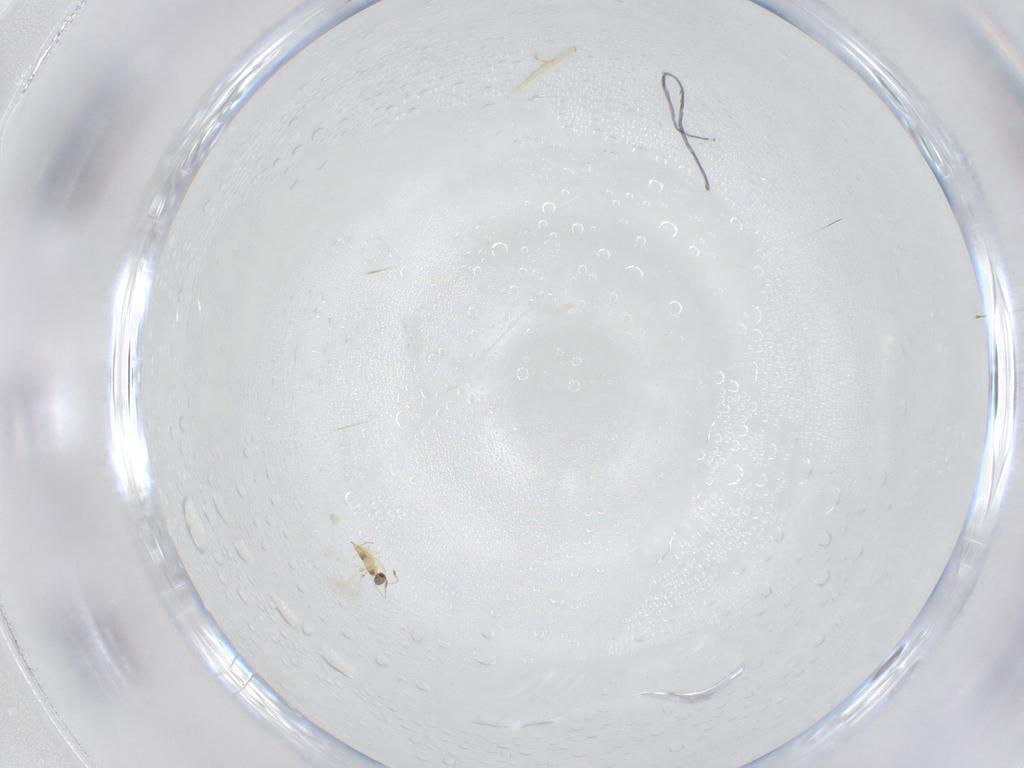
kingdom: Animalia
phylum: Arthropoda
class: Insecta
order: Hymenoptera
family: Mymaridae
